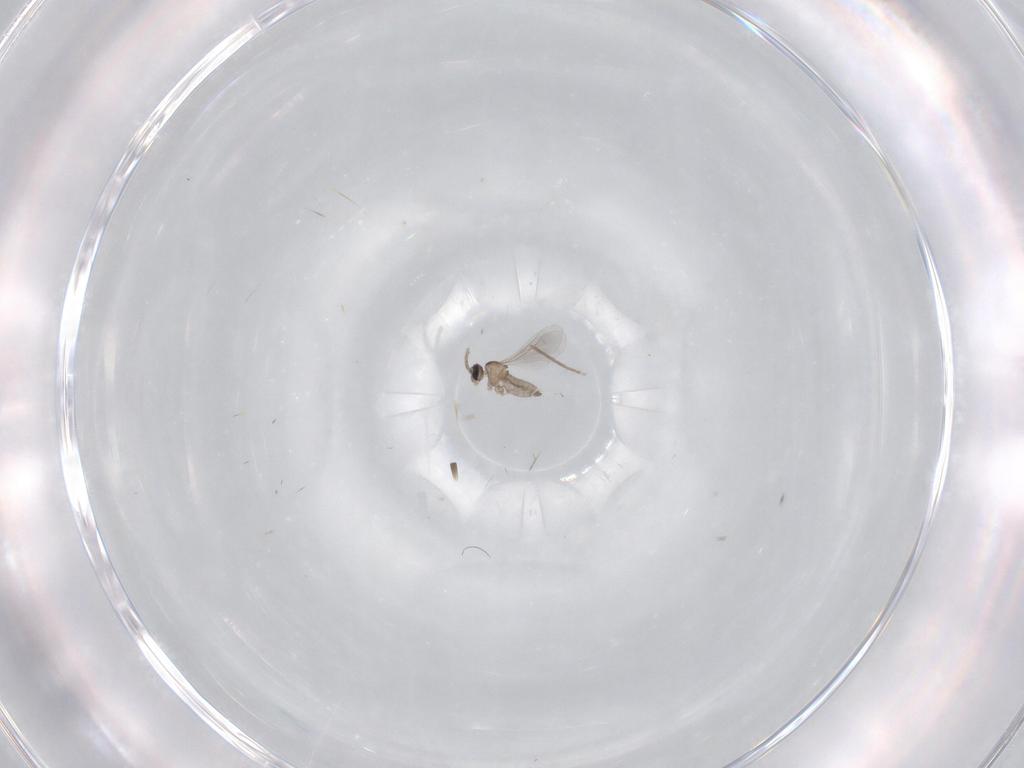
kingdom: Animalia
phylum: Arthropoda
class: Insecta
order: Diptera
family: Cecidomyiidae
